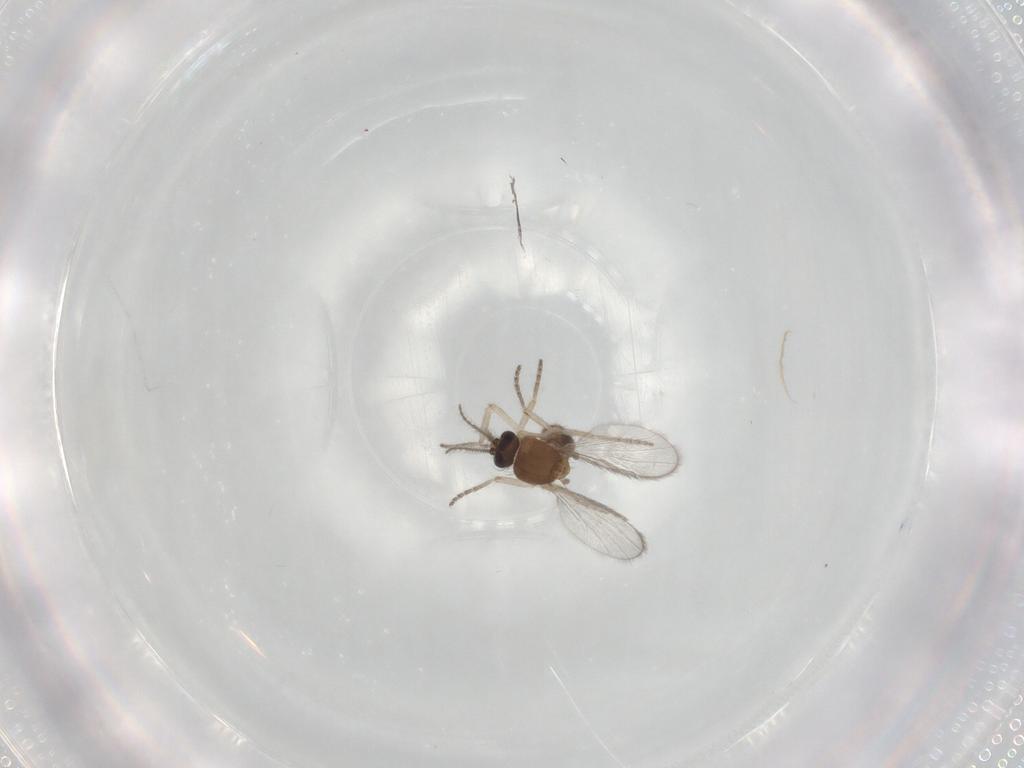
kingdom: Animalia
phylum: Arthropoda
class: Insecta
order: Diptera
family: Ceratopogonidae
